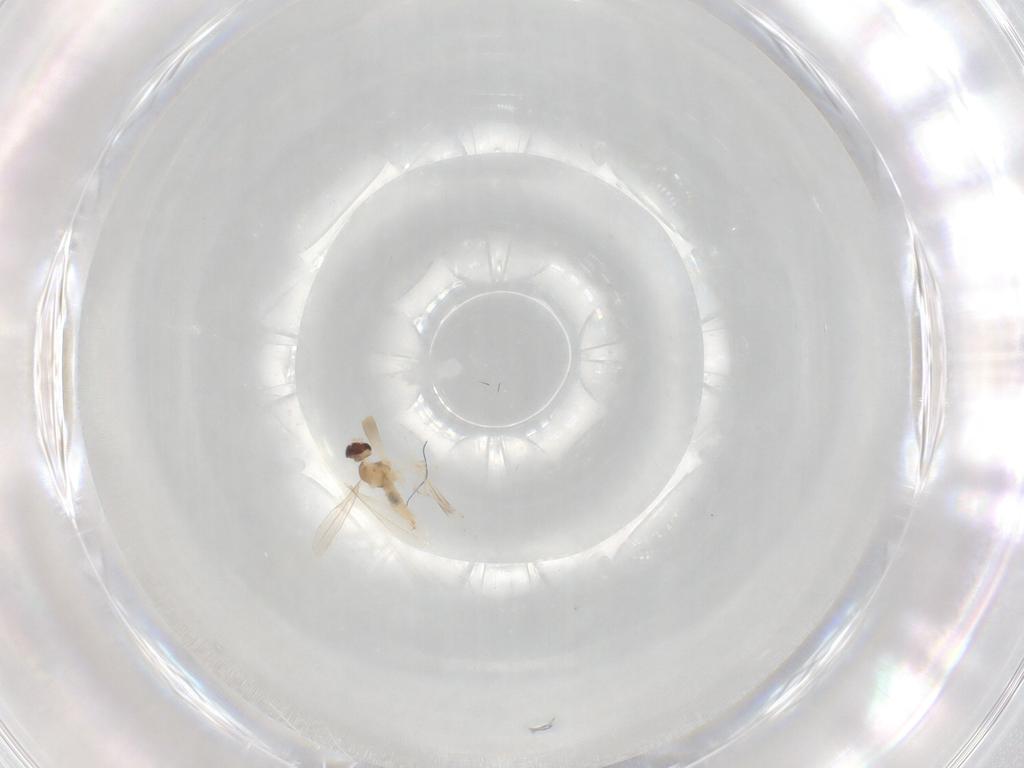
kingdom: Animalia
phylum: Arthropoda
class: Insecta
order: Diptera
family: Cecidomyiidae
